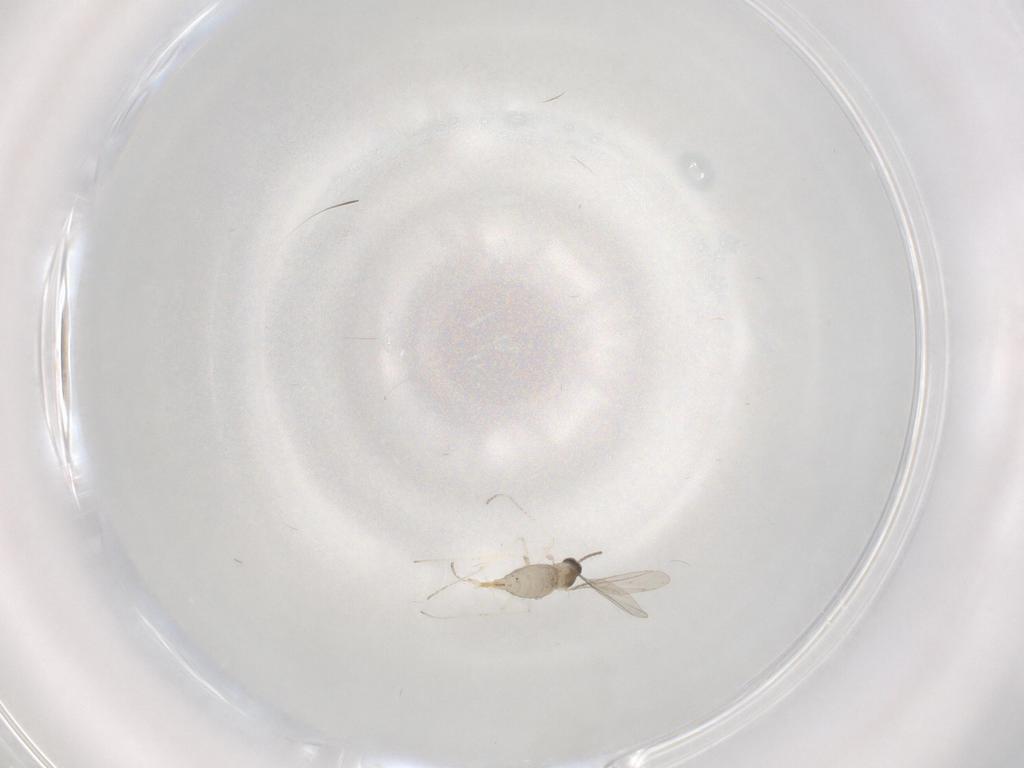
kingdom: Animalia
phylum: Arthropoda
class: Insecta
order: Diptera
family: Cecidomyiidae
